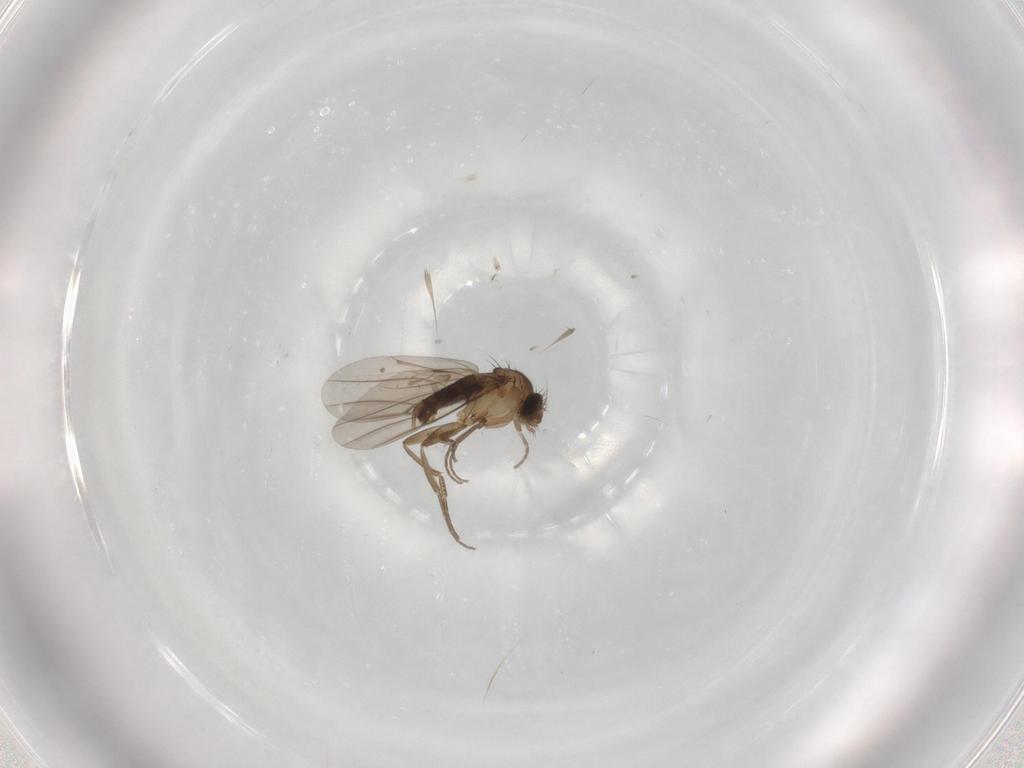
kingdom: Animalia
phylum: Arthropoda
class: Insecta
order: Diptera
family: Phoridae
